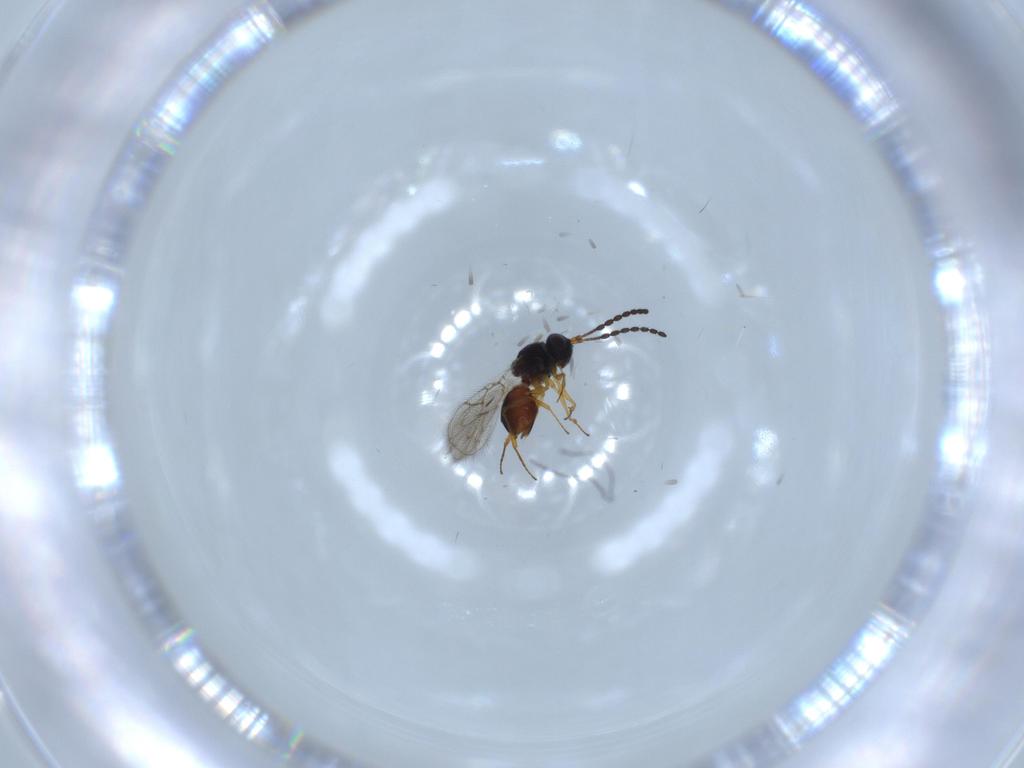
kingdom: Animalia
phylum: Arthropoda
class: Insecta
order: Hymenoptera
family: Figitidae
